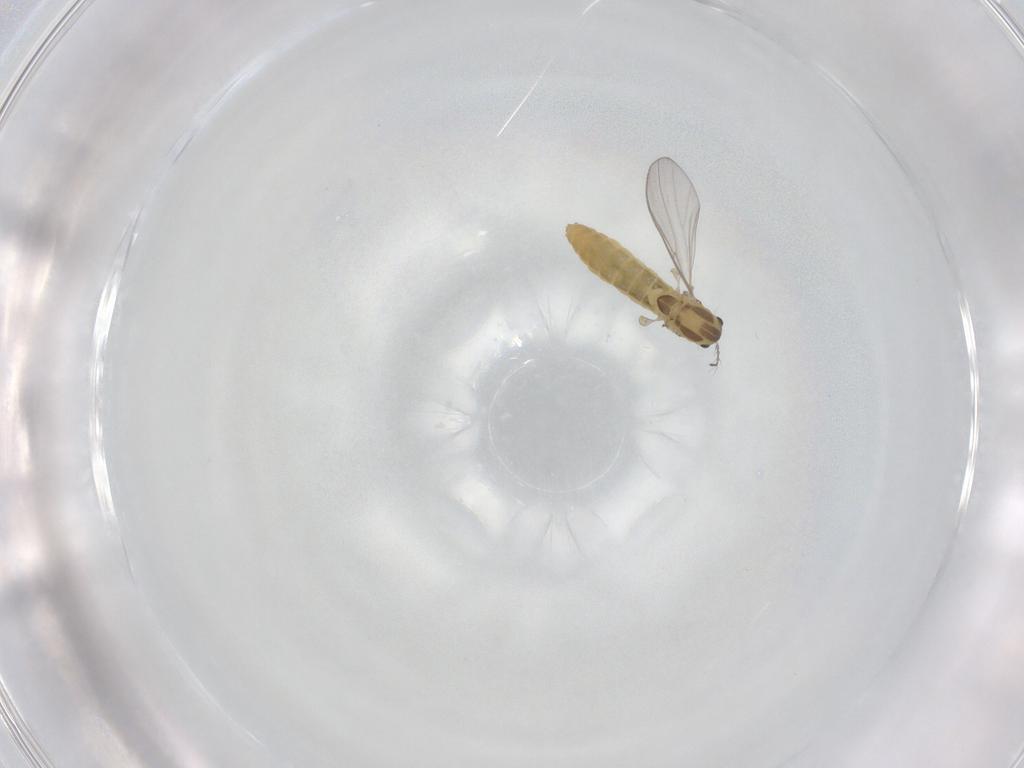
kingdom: Animalia
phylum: Arthropoda
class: Insecta
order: Diptera
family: Chironomidae
